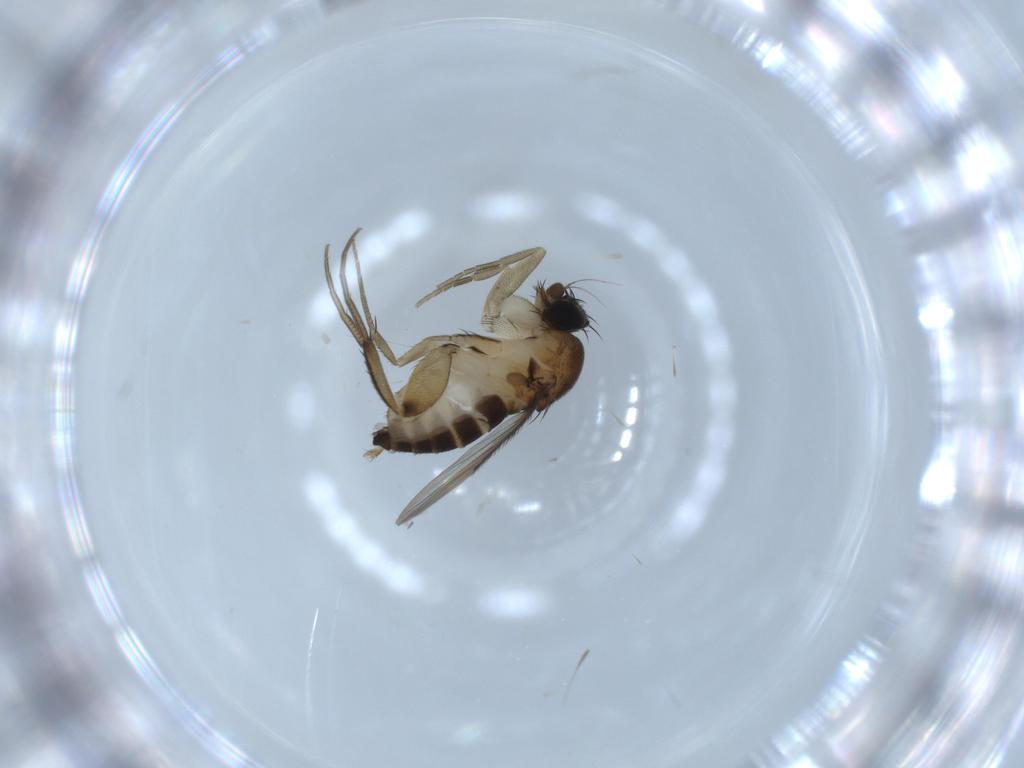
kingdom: Animalia
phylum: Arthropoda
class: Insecta
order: Diptera
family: Phoridae
